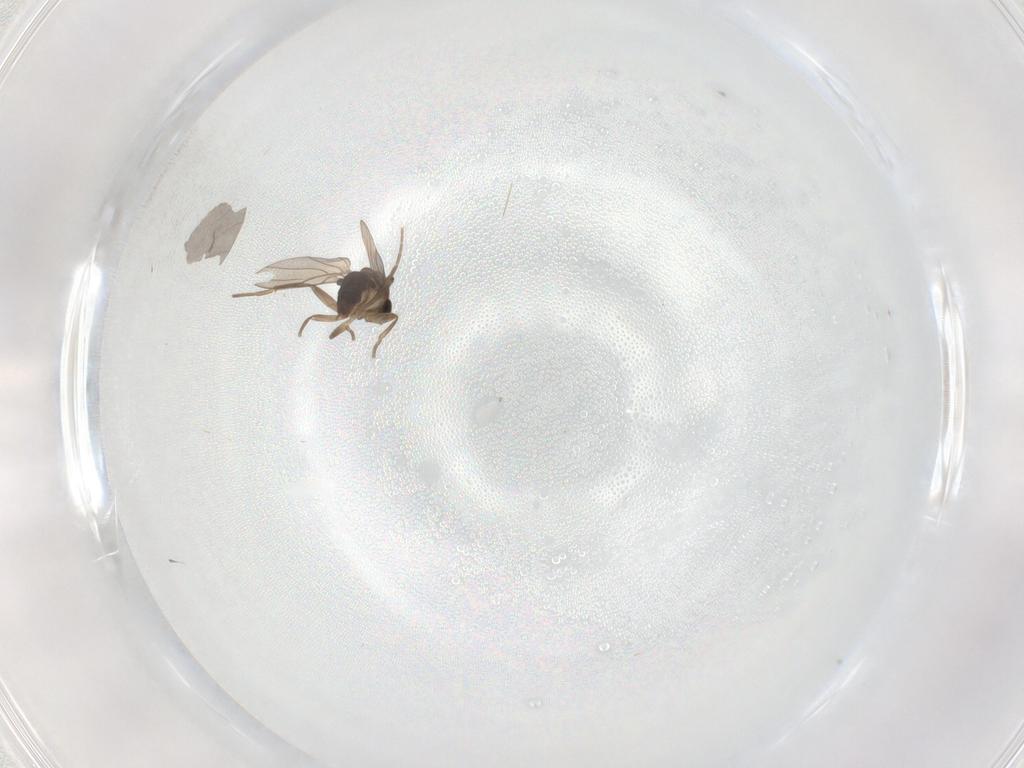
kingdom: Animalia
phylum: Arthropoda
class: Insecta
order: Diptera
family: Phoridae
